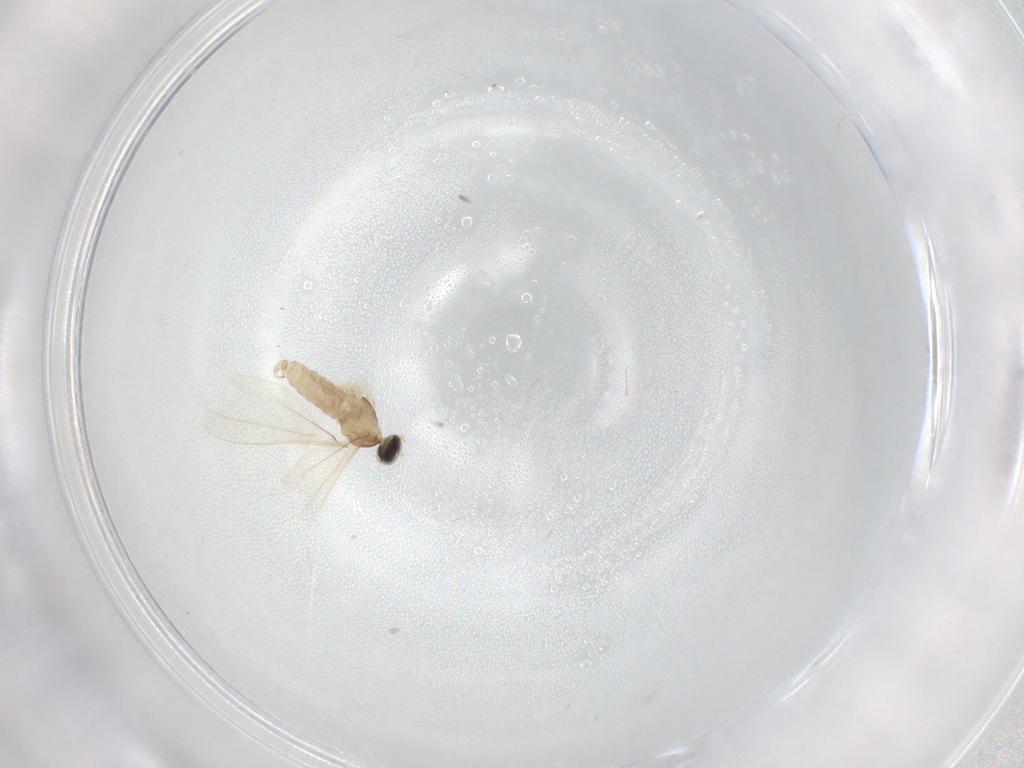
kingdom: Animalia
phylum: Arthropoda
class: Insecta
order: Diptera
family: Cecidomyiidae
